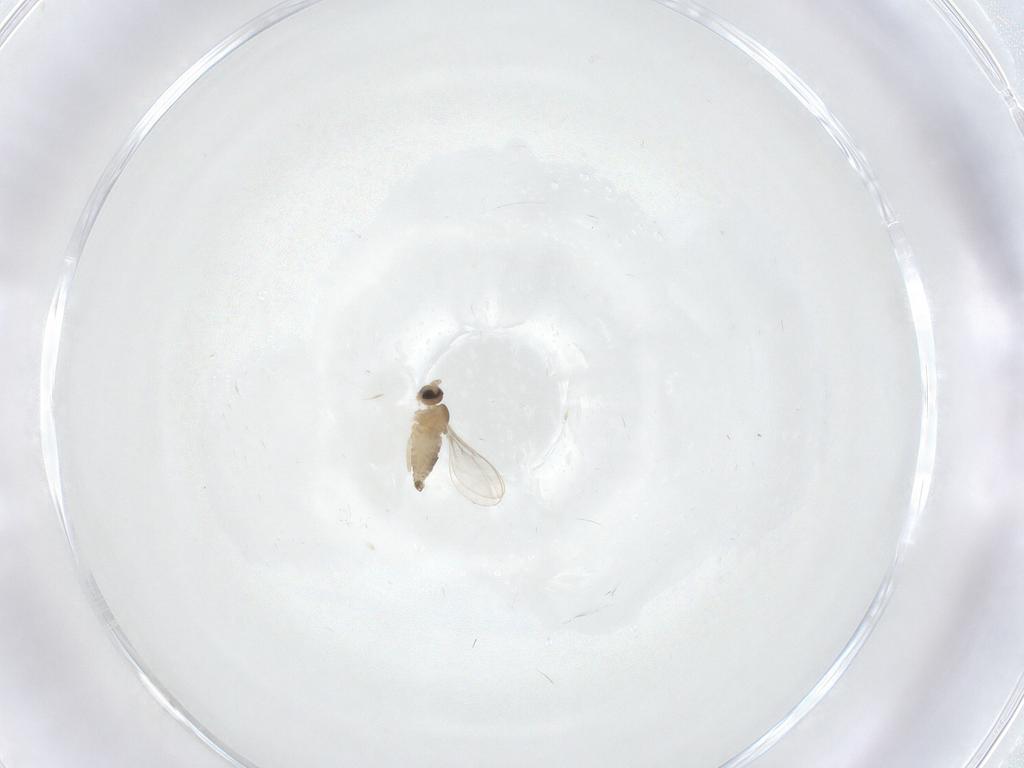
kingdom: Animalia
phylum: Arthropoda
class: Insecta
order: Diptera
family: Cecidomyiidae
